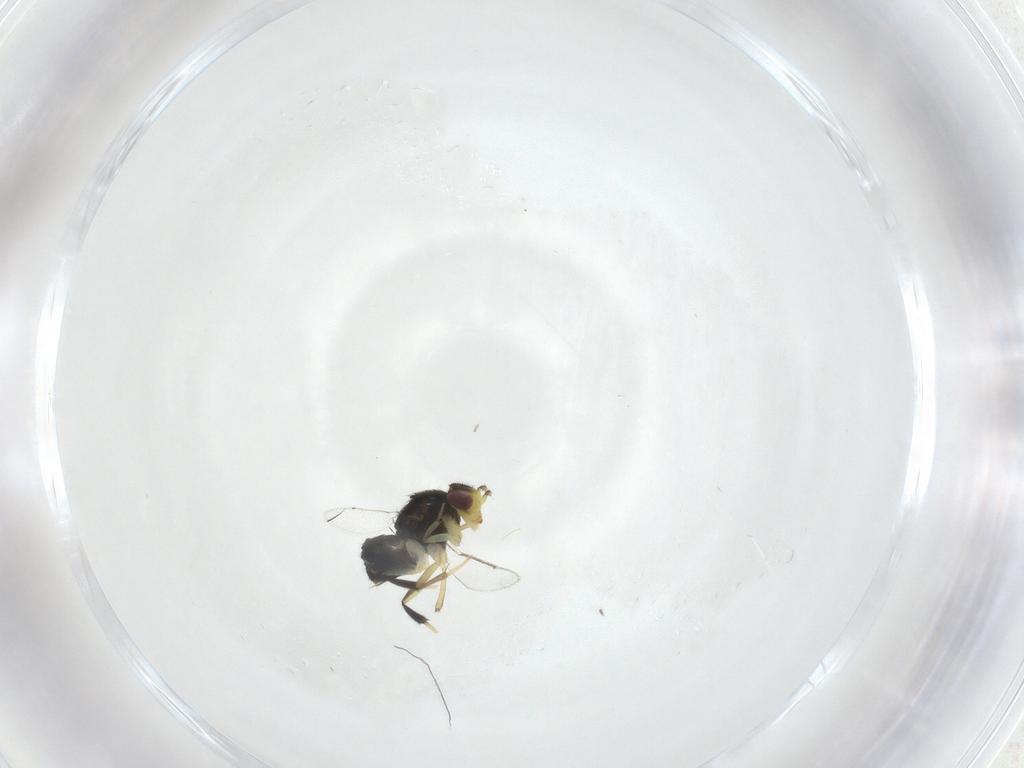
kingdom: Animalia
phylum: Arthropoda
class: Insecta
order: Hymenoptera
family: Aphelinidae
